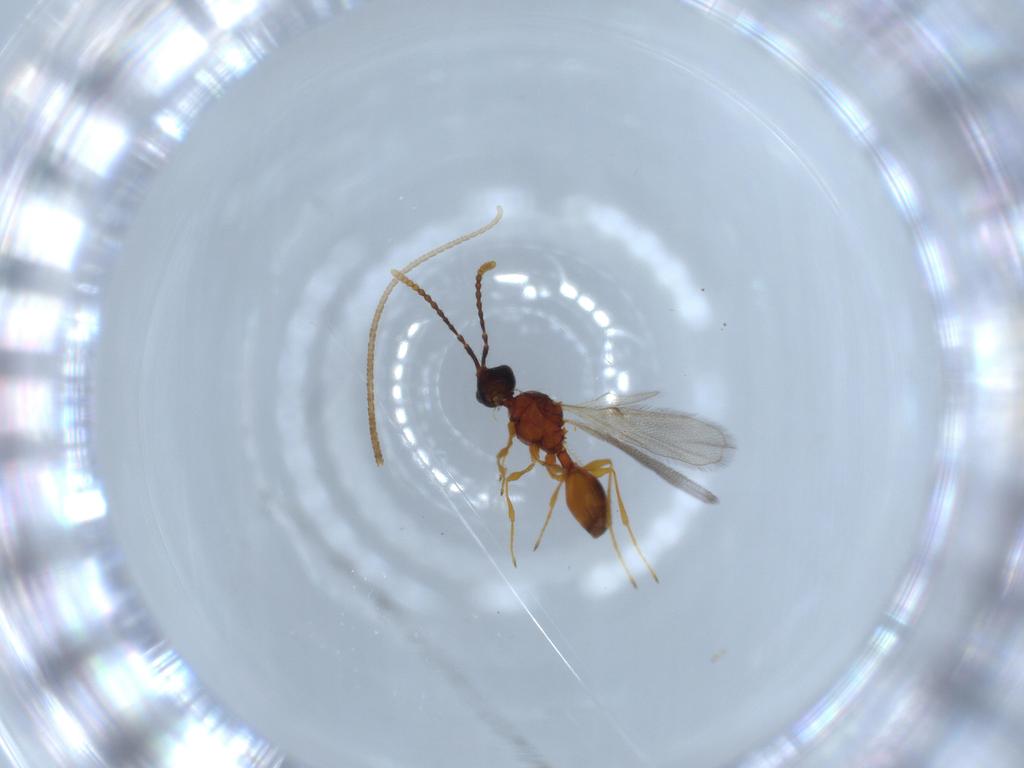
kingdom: Animalia
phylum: Arthropoda
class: Insecta
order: Hymenoptera
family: Diapriidae
